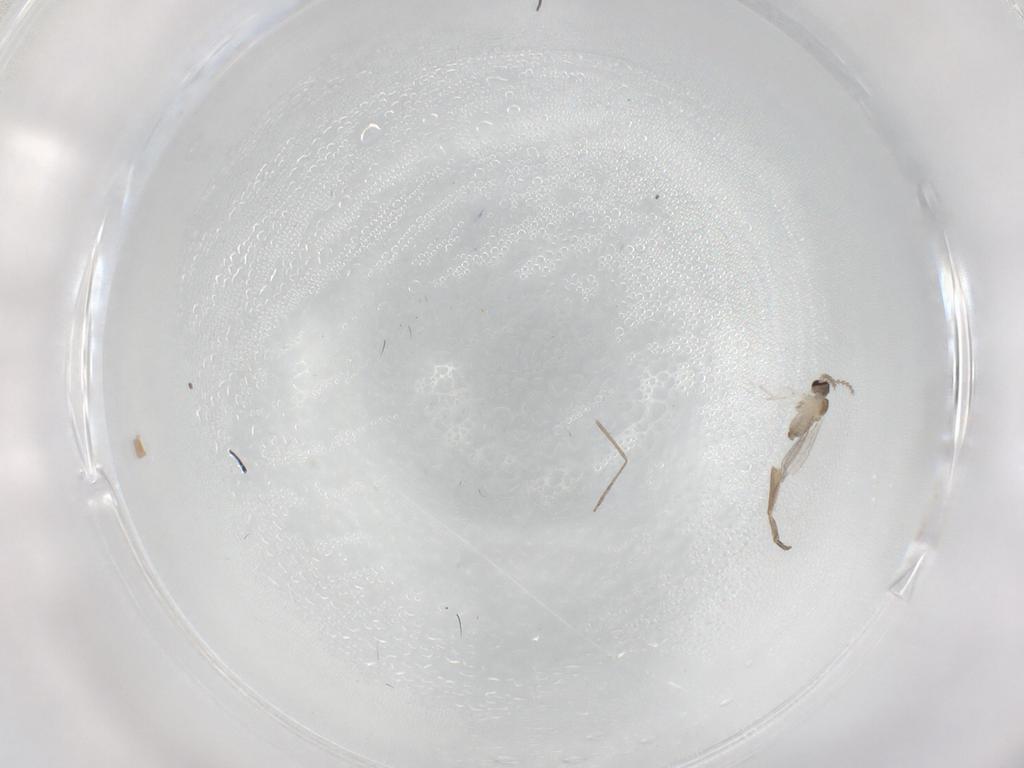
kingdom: Animalia
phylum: Arthropoda
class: Insecta
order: Diptera
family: Cecidomyiidae
